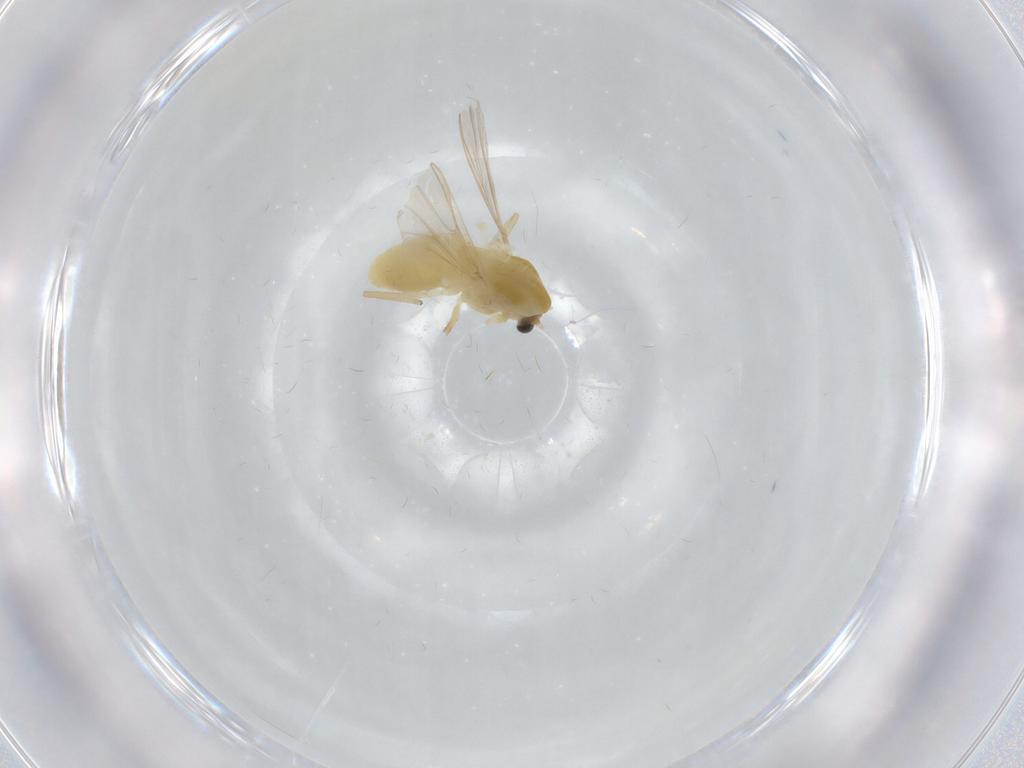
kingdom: Animalia
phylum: Arthropoda
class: Insecta
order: Diptera
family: Chironomidae
